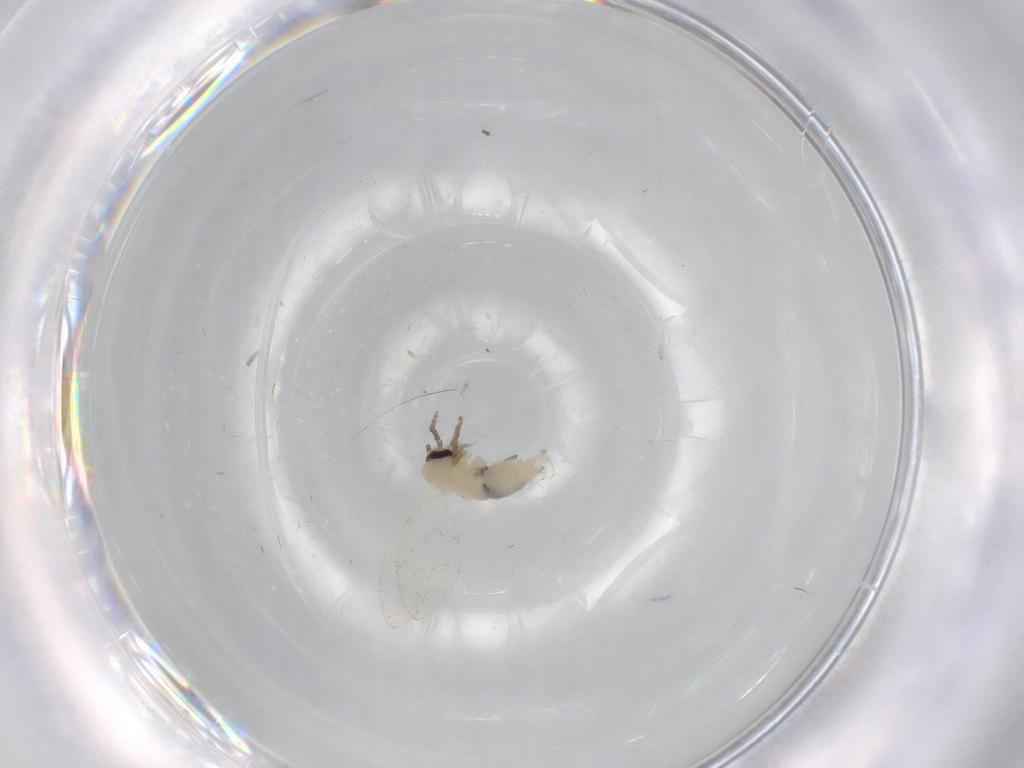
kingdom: Animalia
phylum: Arthropoda
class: Insecta
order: Diptera
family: Psychodidae
